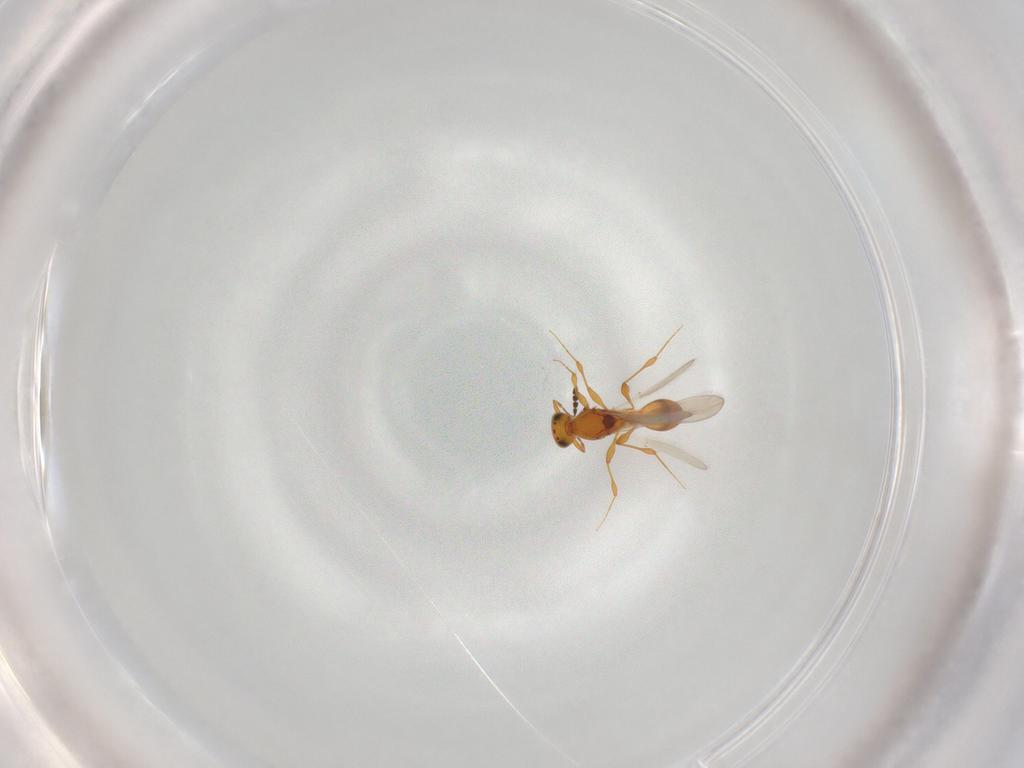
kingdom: Animalia
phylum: Arthropoda
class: Insecta
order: Hymenoptera
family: Platygastridae
